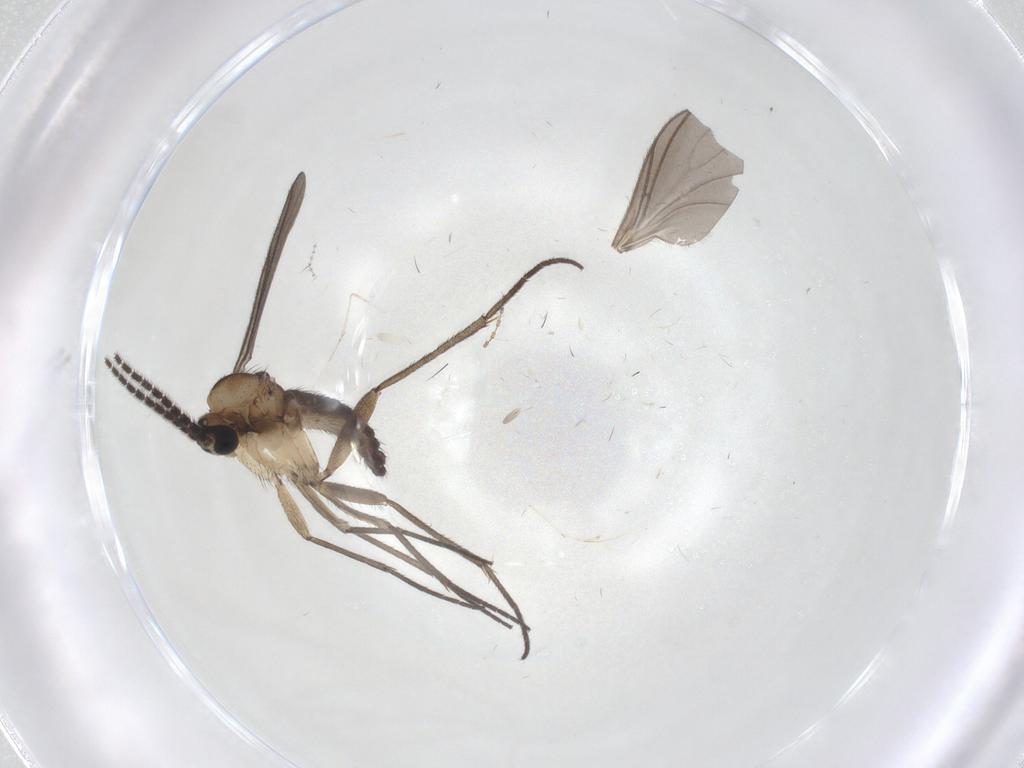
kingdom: Animalia
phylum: Arthropoda
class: Insecta
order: Diptera
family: Sciaridae
